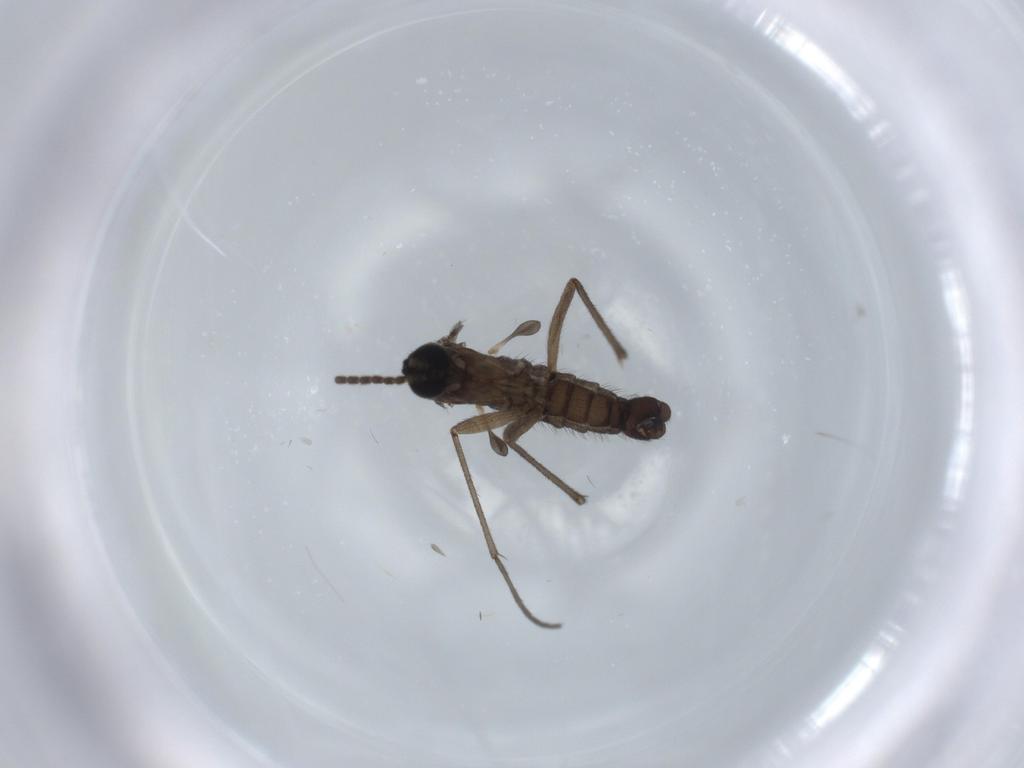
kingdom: Animalia
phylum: Arthropoda
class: Insecta
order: Diptera
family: Sciaridae
